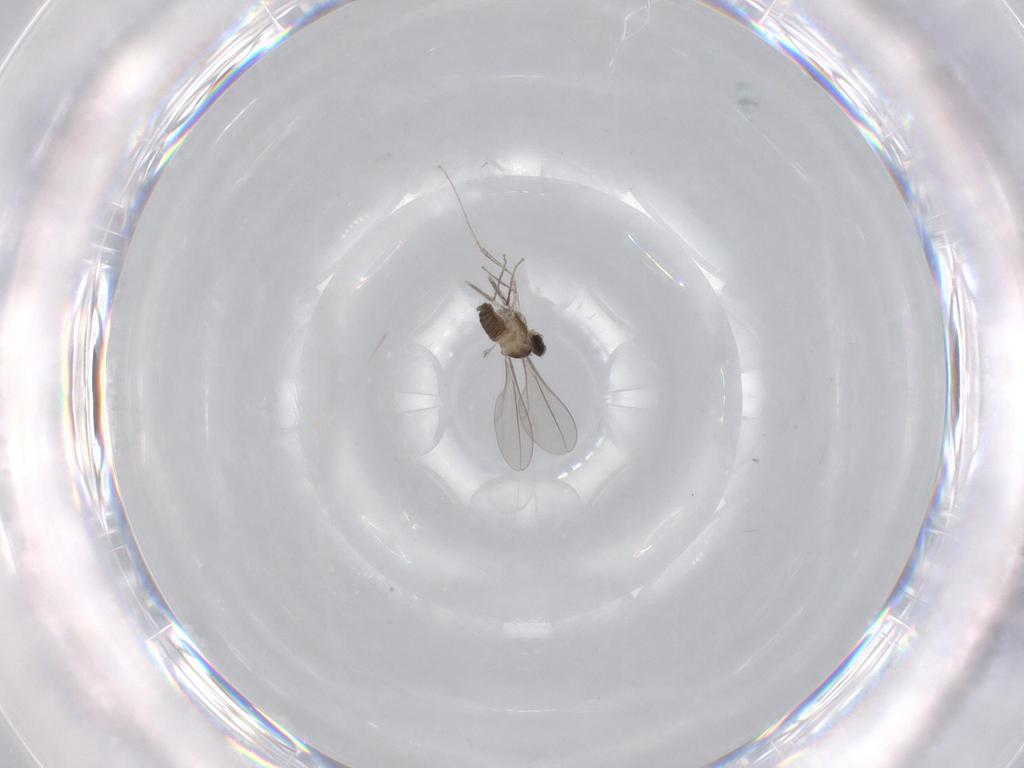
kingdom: Animalia
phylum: Arthropoda
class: Insecta
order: Diptera
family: Cecidomyiidae
